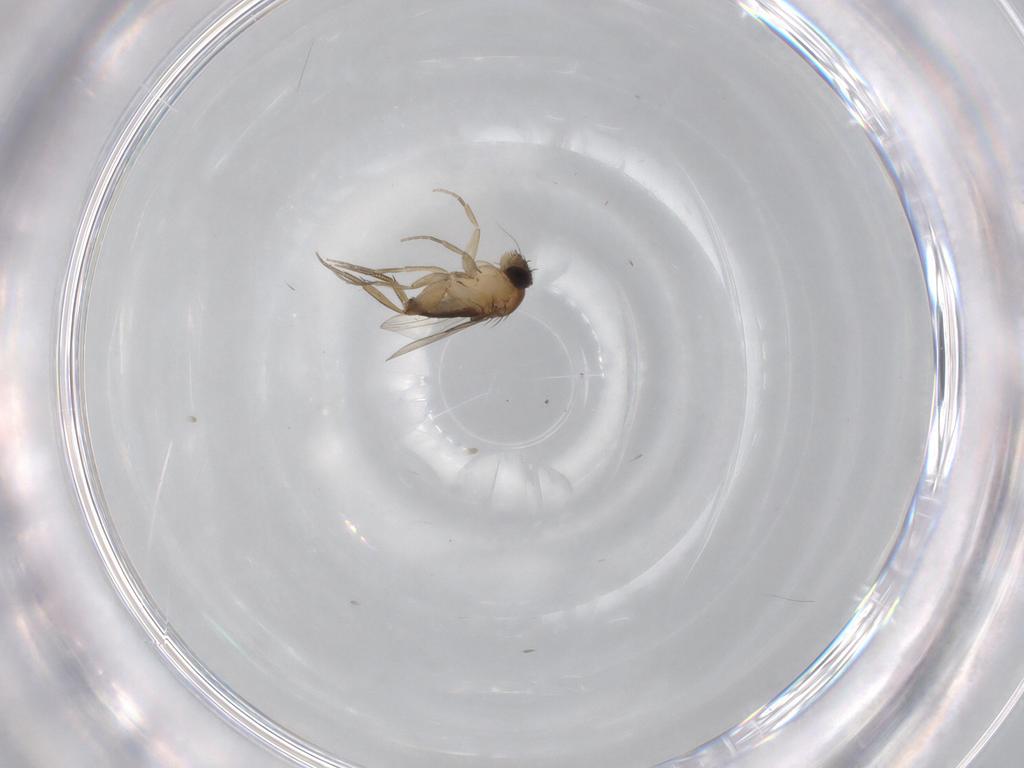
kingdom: Animalia
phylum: Arthropoda
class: Insecta
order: Diptera
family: Phoridae
